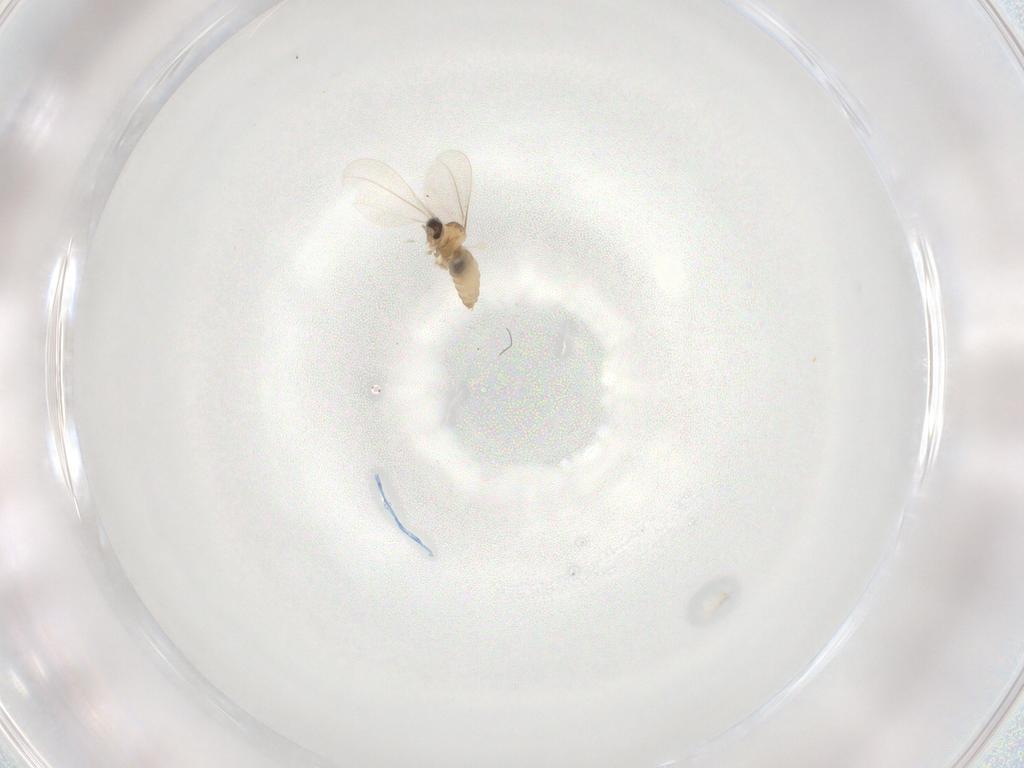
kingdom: Animalia
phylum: Arthropoda
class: Insecta
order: Diptera
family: Cecidomyiidae
